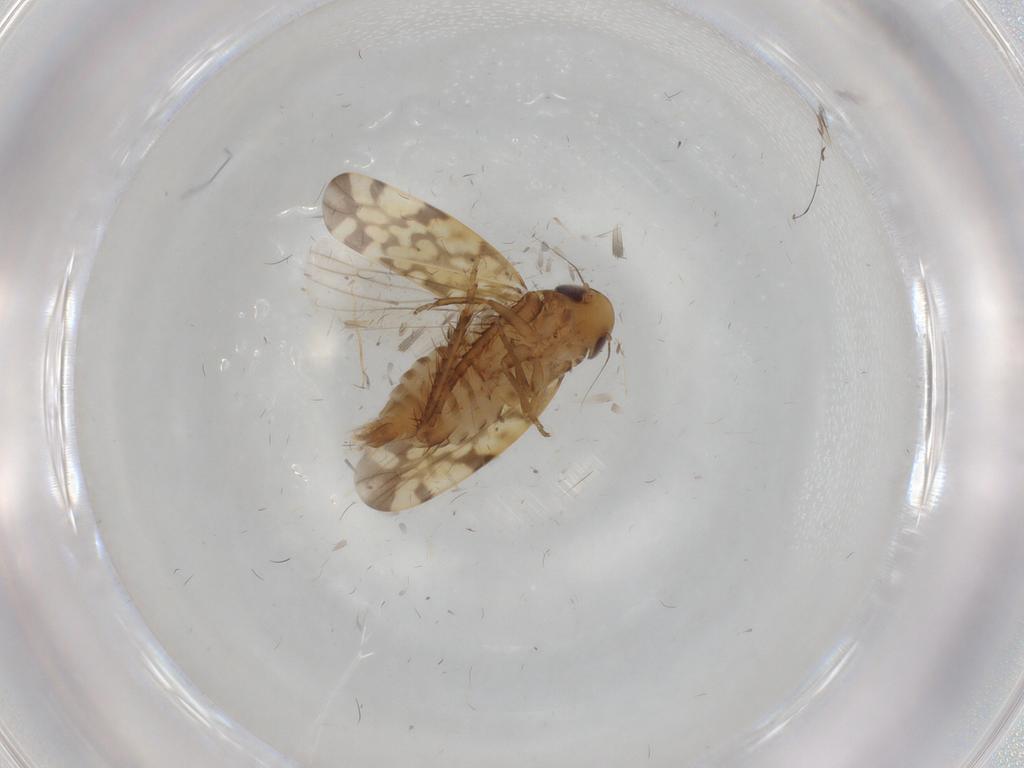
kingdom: Animalia
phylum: Arthropoda
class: Insecta
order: Hemiptera
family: Cicadellidae
